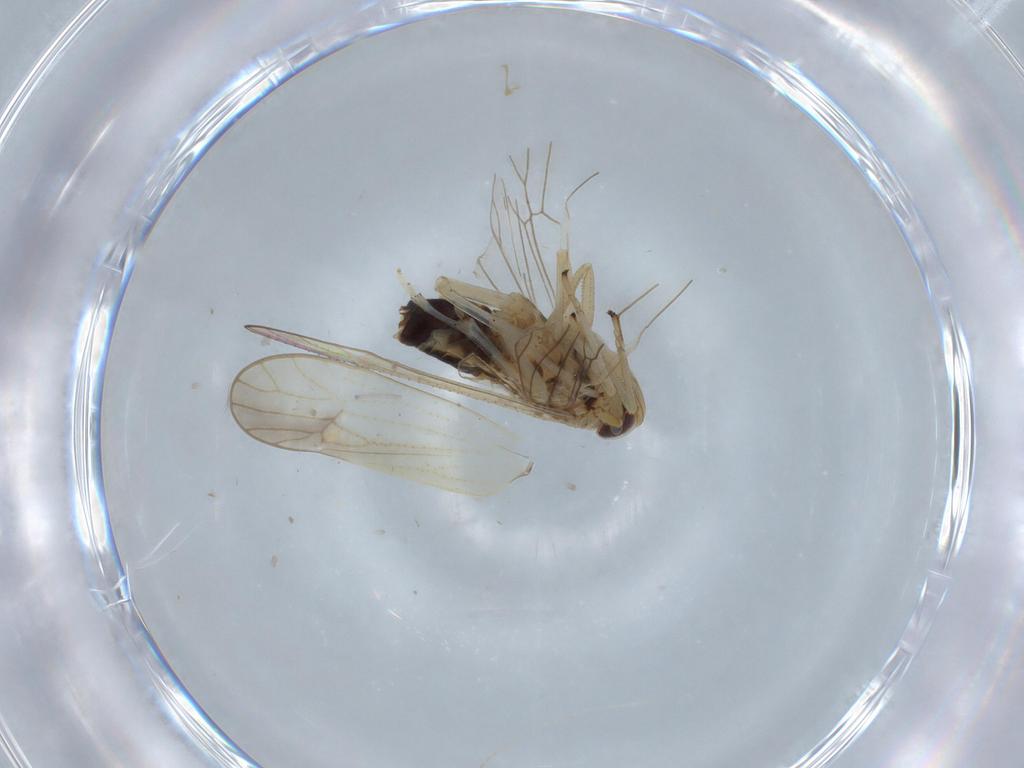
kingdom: Animalia
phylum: Arthropoda
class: Insecta
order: Hemiptera
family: Delphacidae
